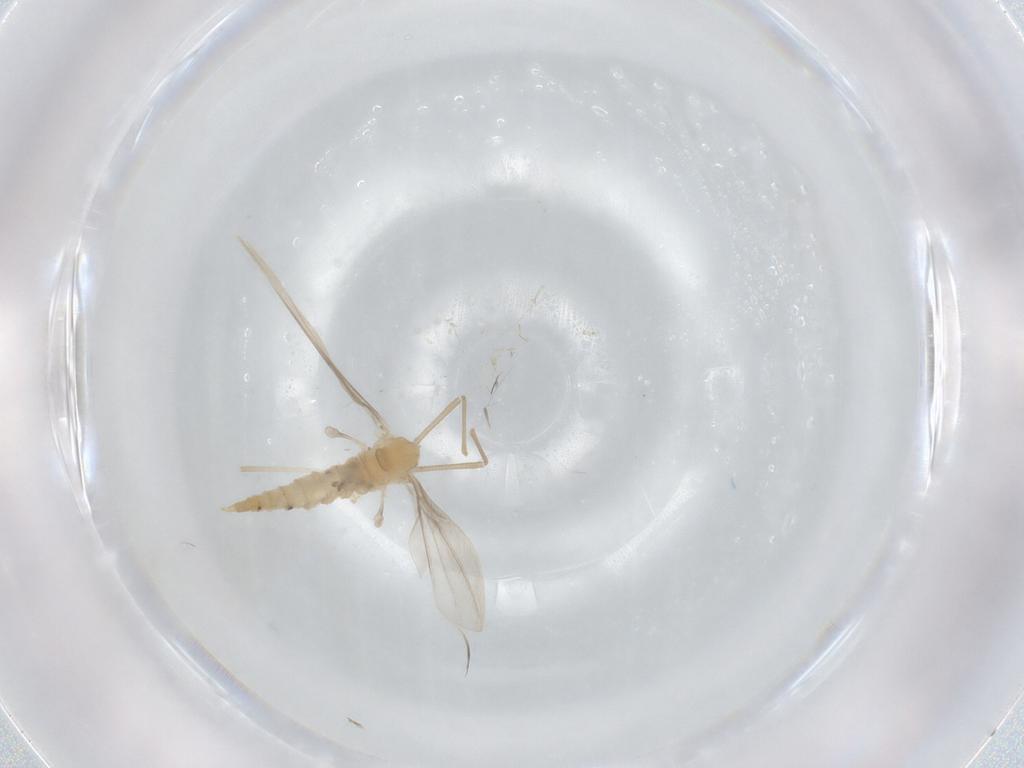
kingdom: Animalia
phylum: Arthropoda
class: Insecta
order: Diptera
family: Cecidomyiidae
